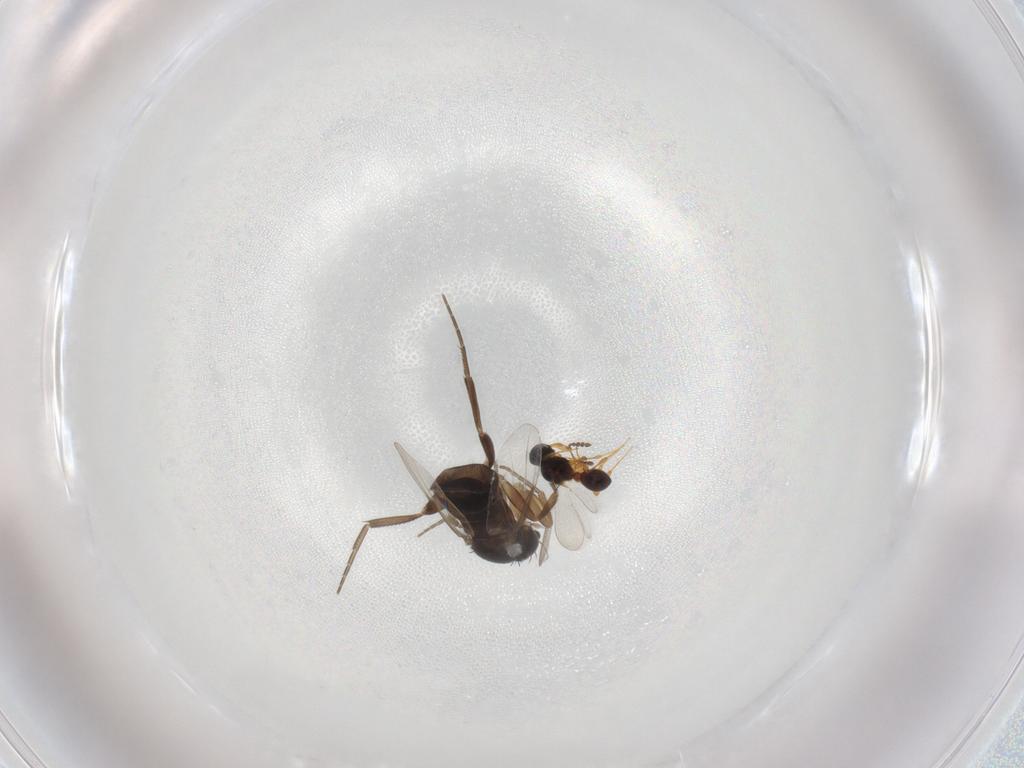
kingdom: Animalia
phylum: Arthropoda
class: Insecta
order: Diptera
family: Phoridae
